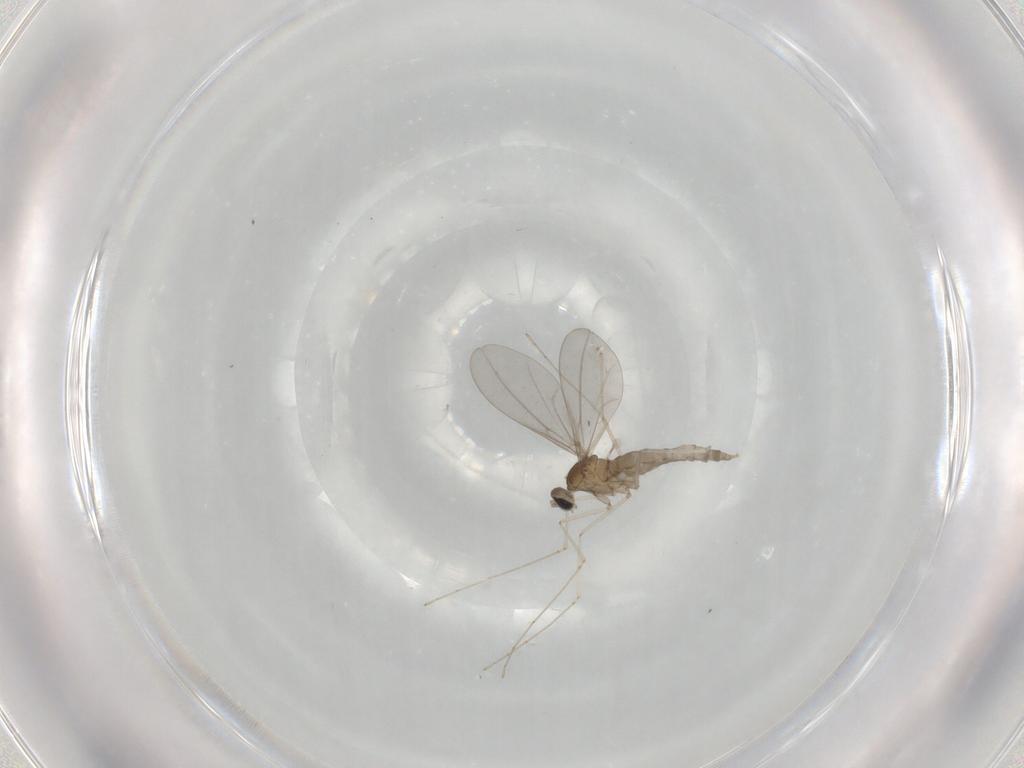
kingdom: Animalia
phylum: Arthropoda
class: Insecta
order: Diptera
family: Cecidomyiidae
